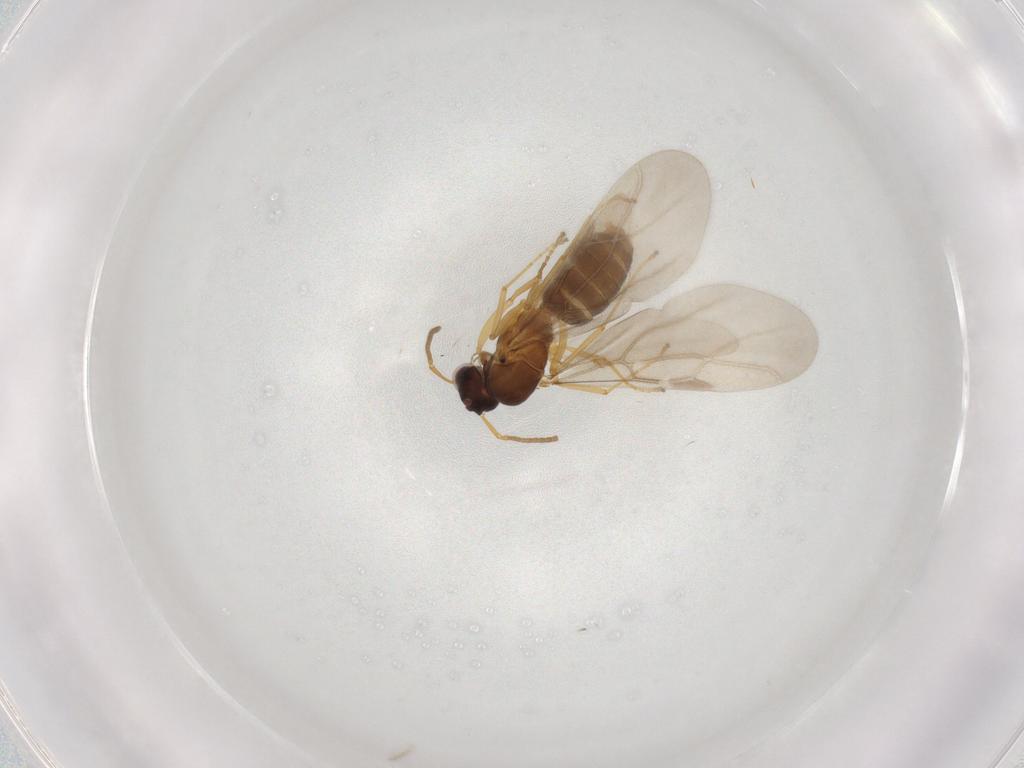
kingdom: Animalia
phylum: Arthropoda
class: Insecta
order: Hymenoptera
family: Formicidae
